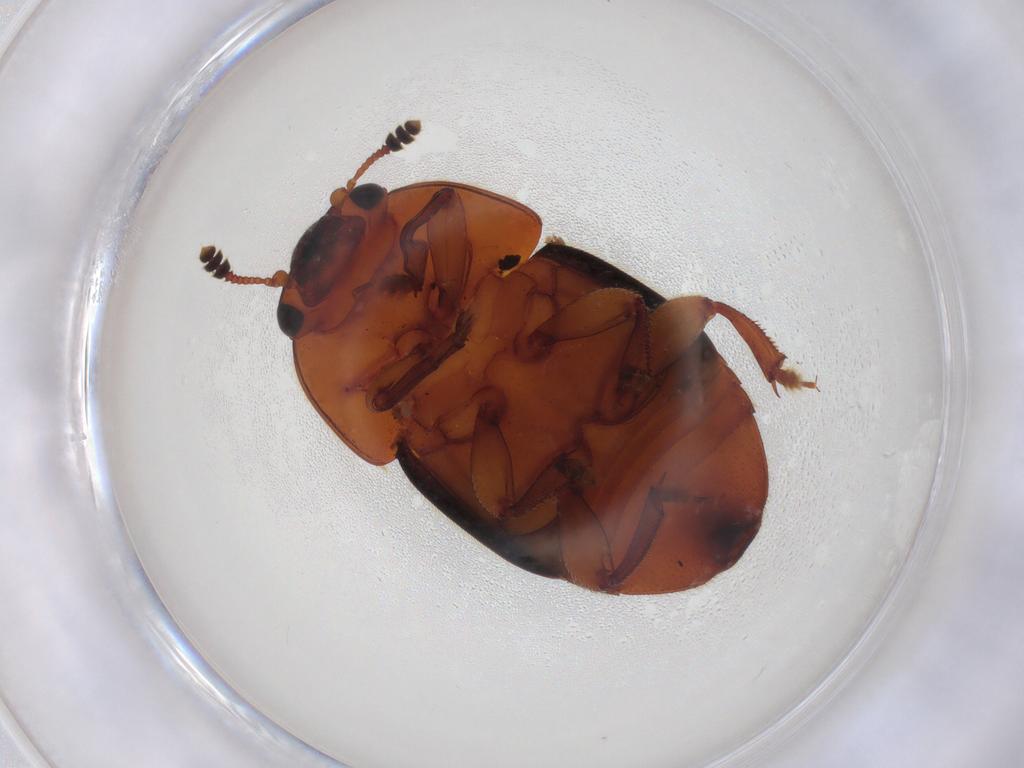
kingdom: Animalia
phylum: Arthropoda
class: Insecta
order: Coleoptera
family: Nitidulidae
